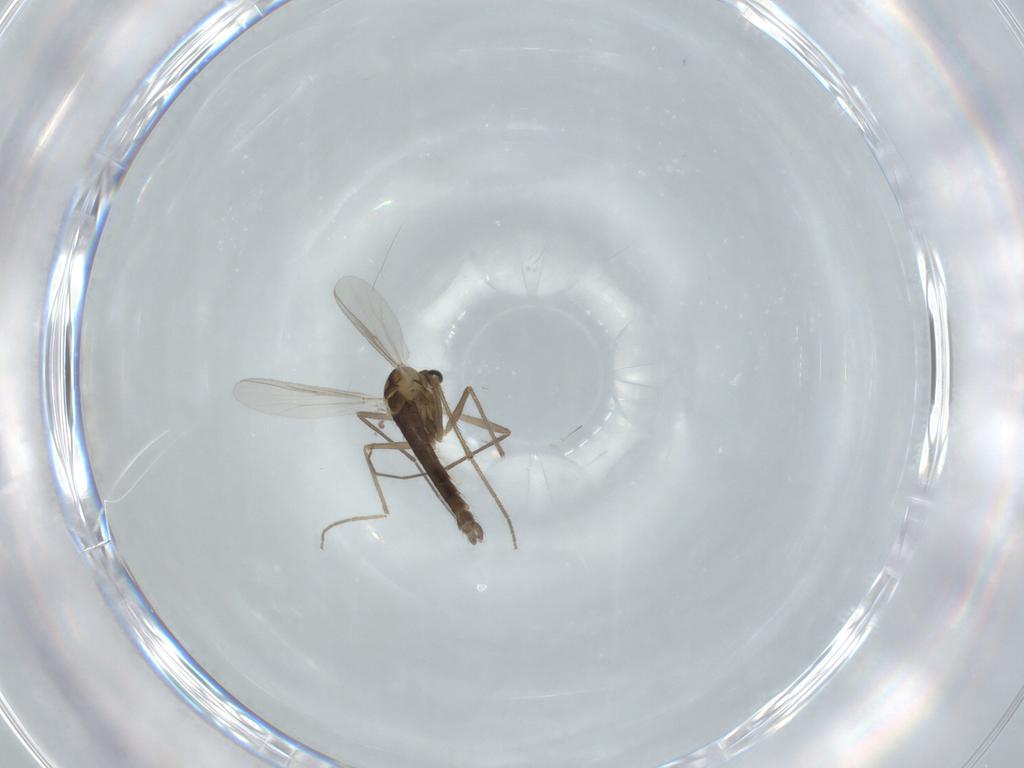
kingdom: Animalia
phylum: Arthropoda
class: Insecta
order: Diptera
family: Chironomidae
